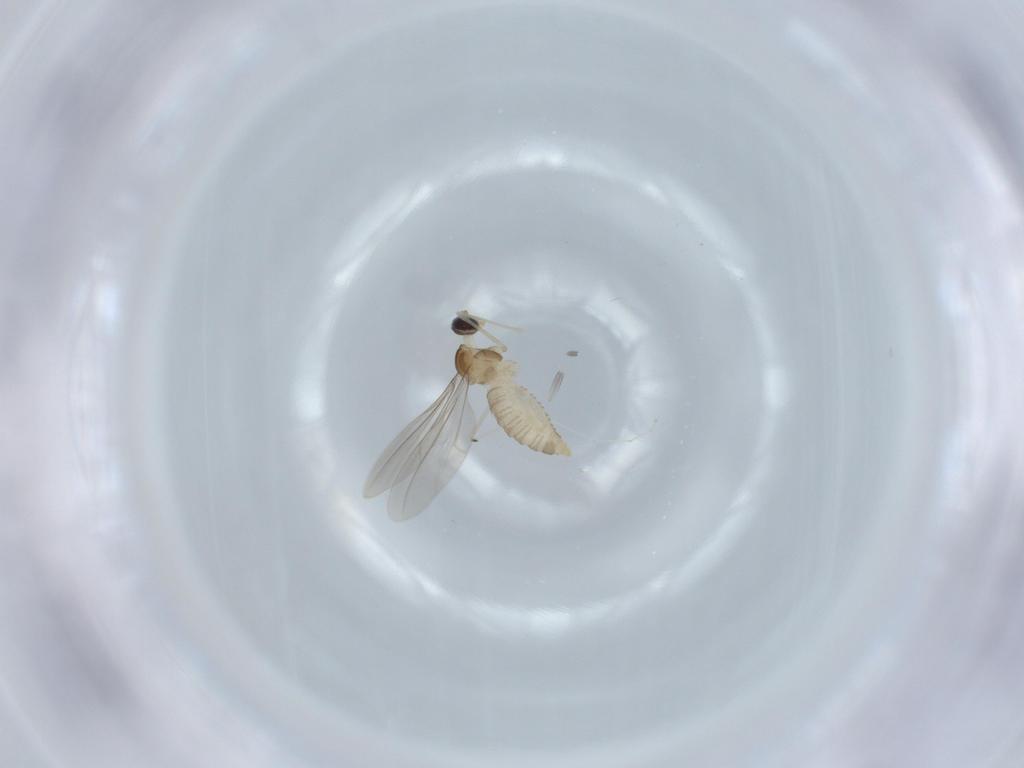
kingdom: Animalia
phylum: Arthropoda
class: Insecta
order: Diptera
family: Cecidomyiidae
